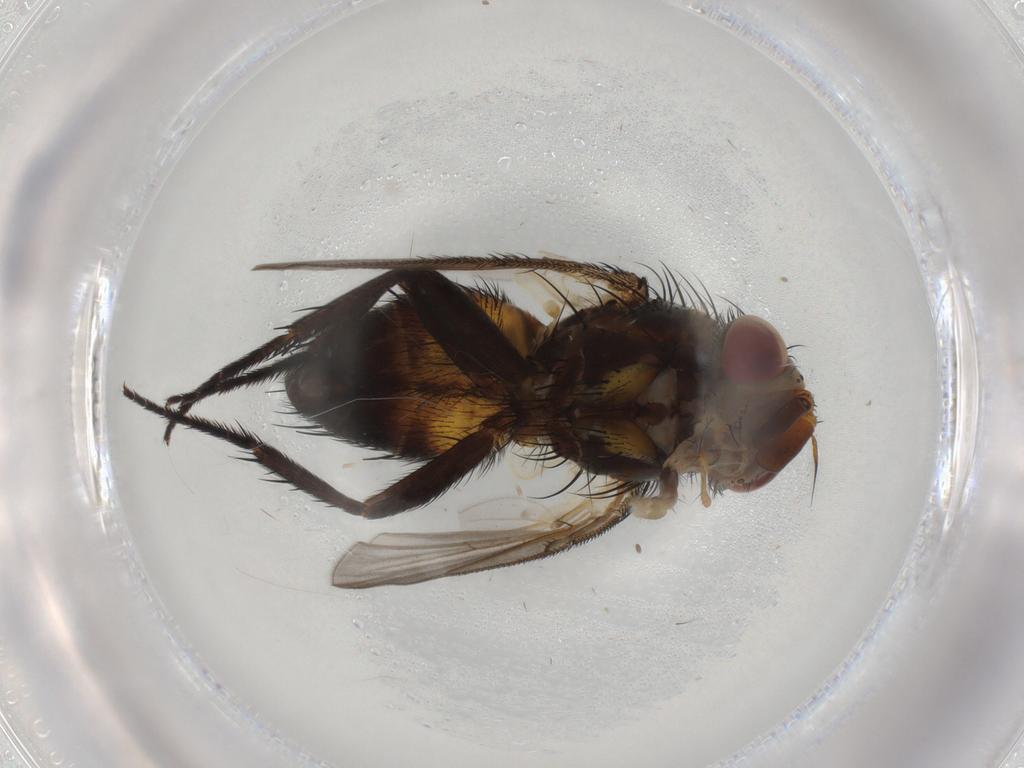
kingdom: Animalia
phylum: Arthropoda
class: Insecta
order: Diptera
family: Tachinidae
